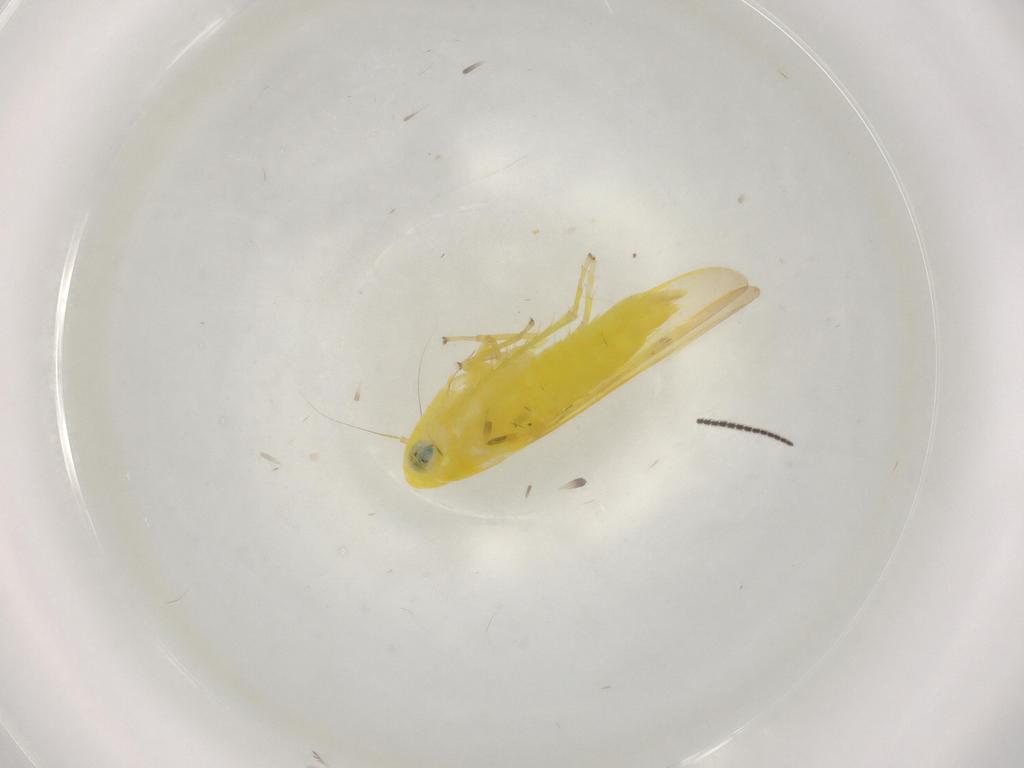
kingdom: Animalia
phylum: Arthropoda
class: Insecta
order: Hemiptera
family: Cicadellidae
